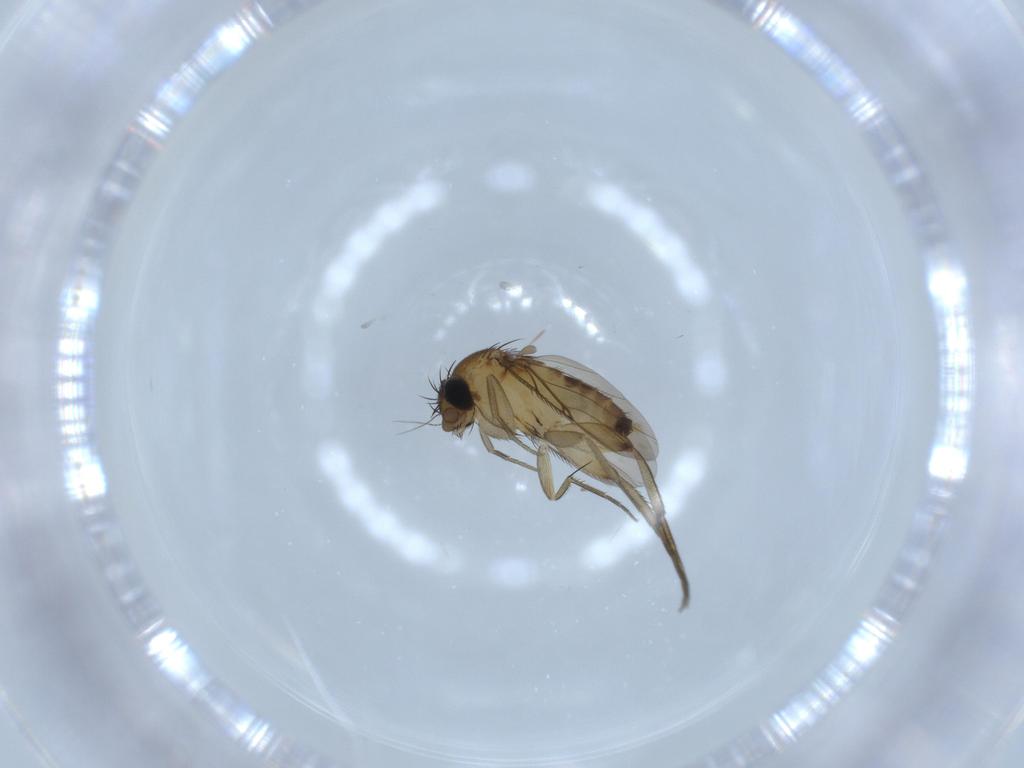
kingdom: Animalia
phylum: Arthropoda
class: Insecta
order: Diptera
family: Phoridae
